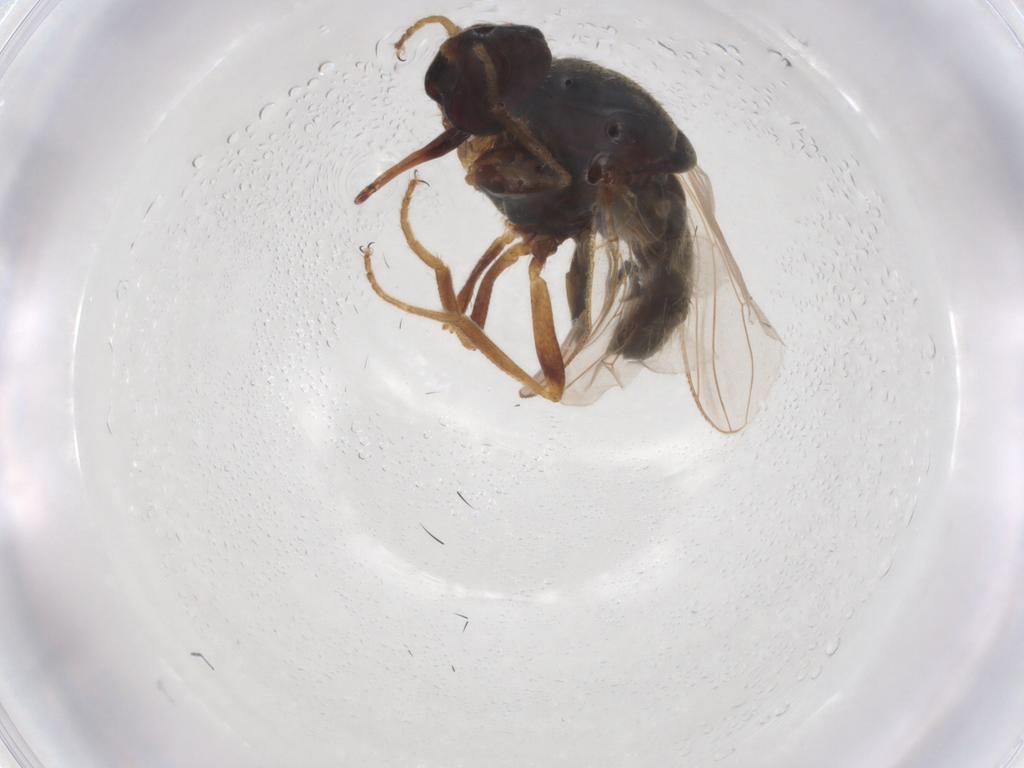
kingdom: Animalia
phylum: Arthropoda
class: Insecta
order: Diptera
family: Muscidae
